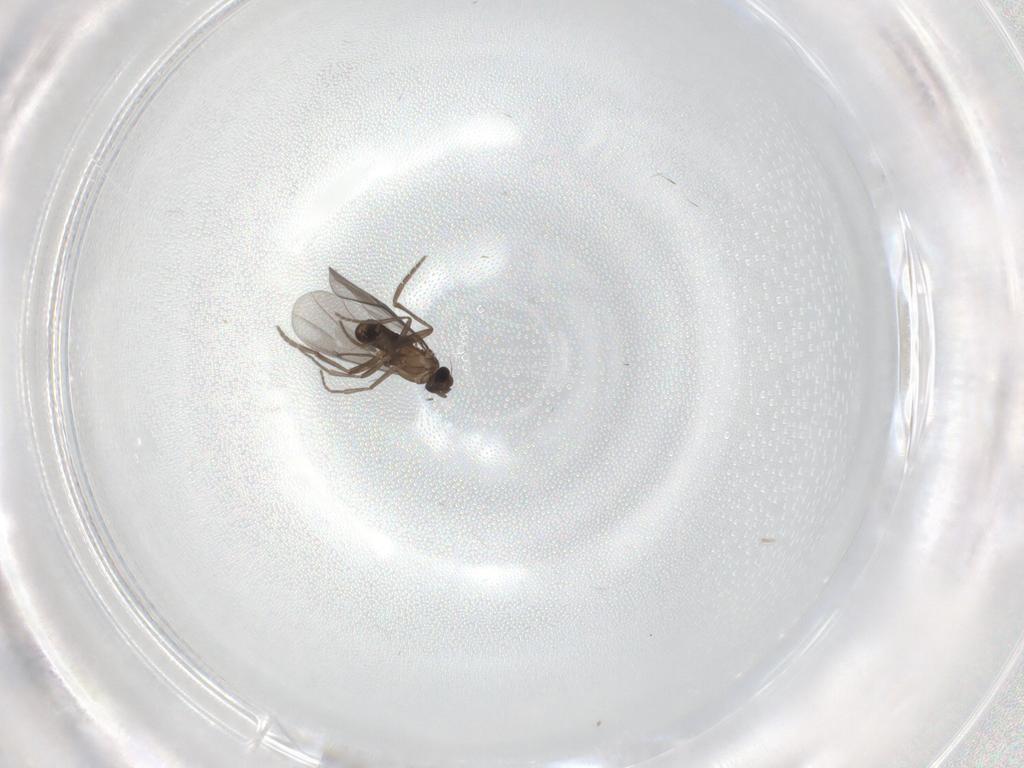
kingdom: Animalia
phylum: Arthropoda
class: Insecta
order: Diptera
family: Phoridae
